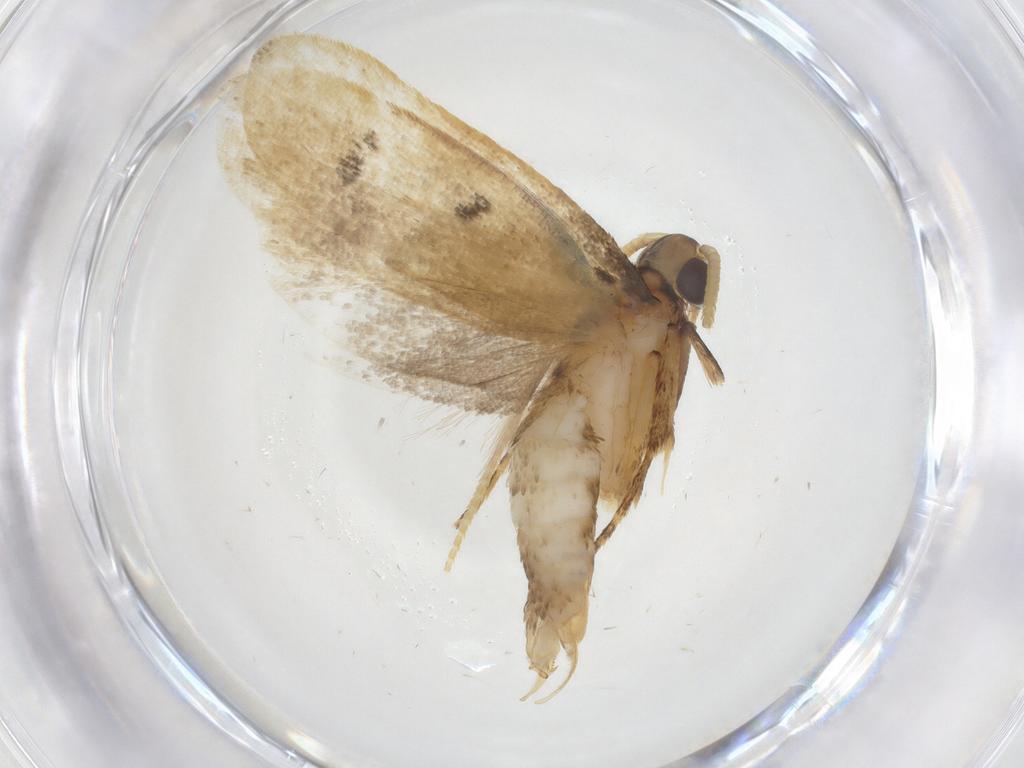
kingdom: Animalia
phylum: Arthropoda
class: Insecta
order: Lepidoptera
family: Lecithoceridae
